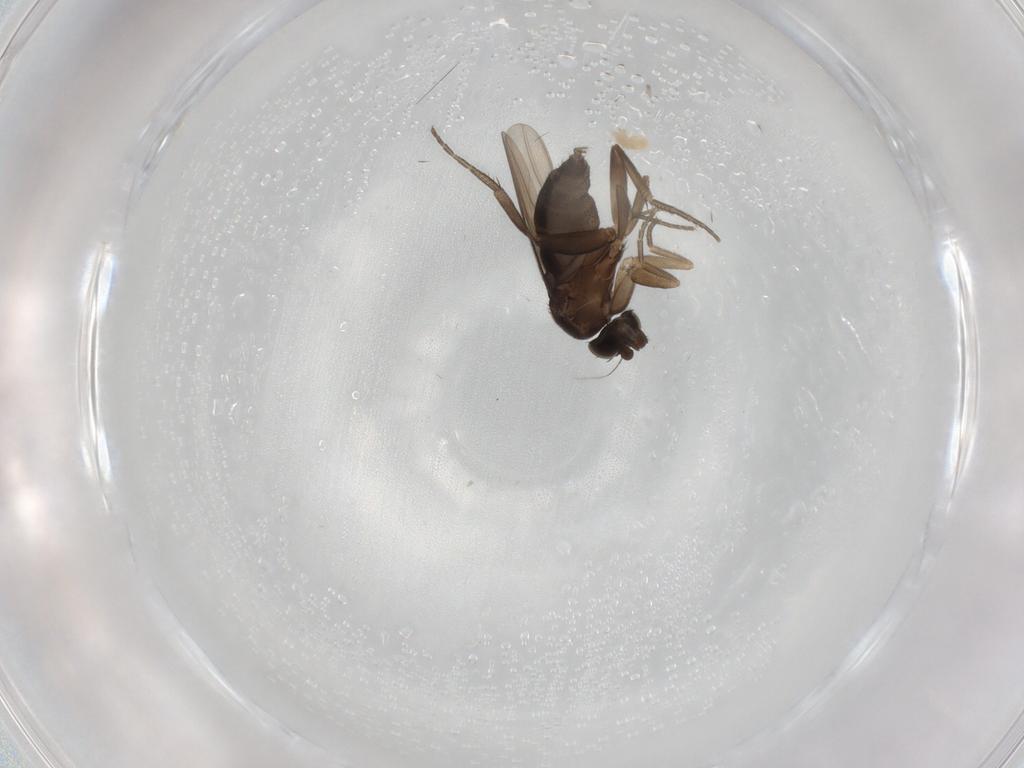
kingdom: Animalia
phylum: Arthropoda
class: Insecta
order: Diptera
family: Phoridae
